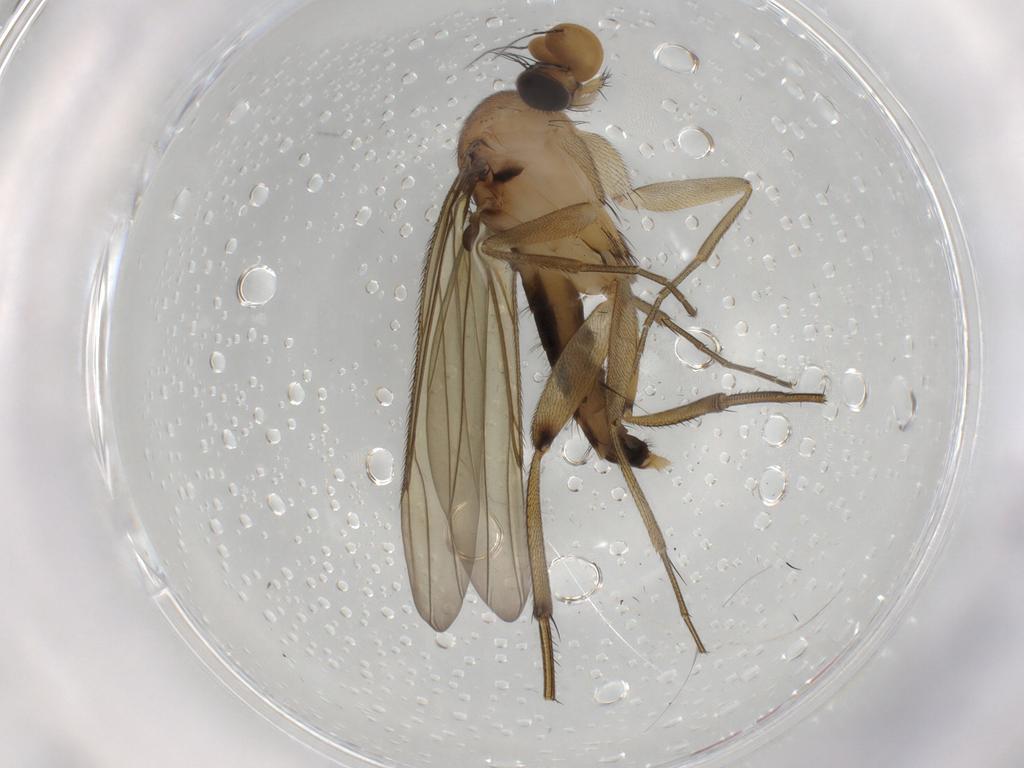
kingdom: Animalia
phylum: Arthropoda
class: Insecta
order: Diptera
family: Phoridae
